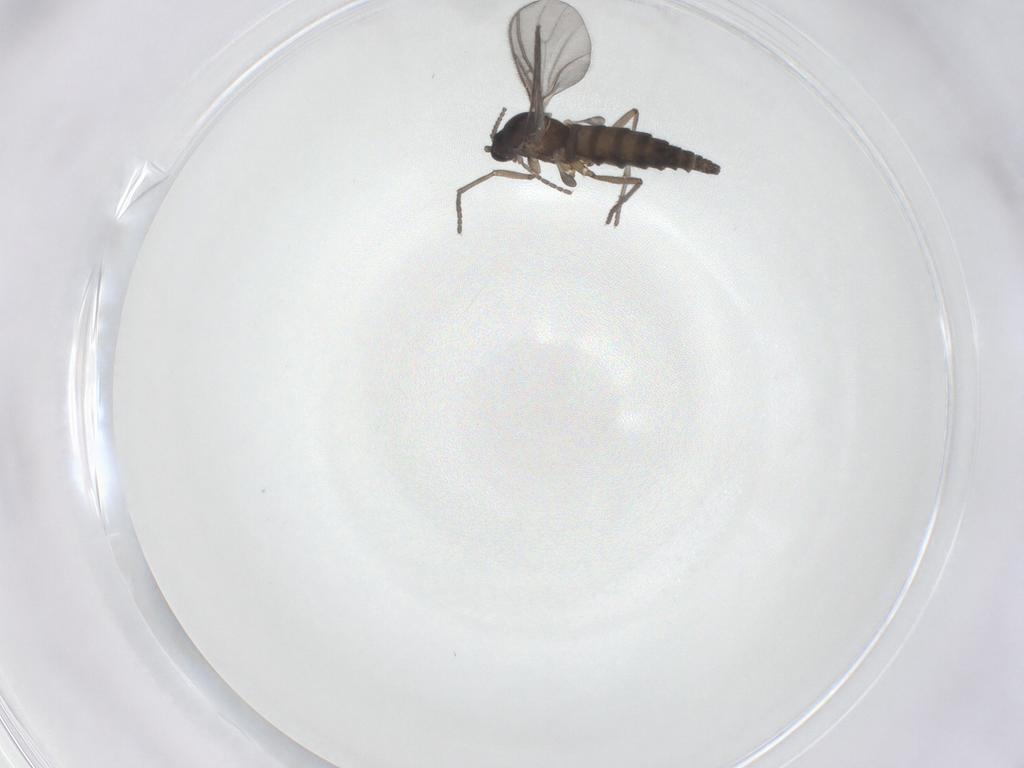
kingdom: Animalia
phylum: Arthropoda
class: Insecta
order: Diptera
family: Sciaridae
